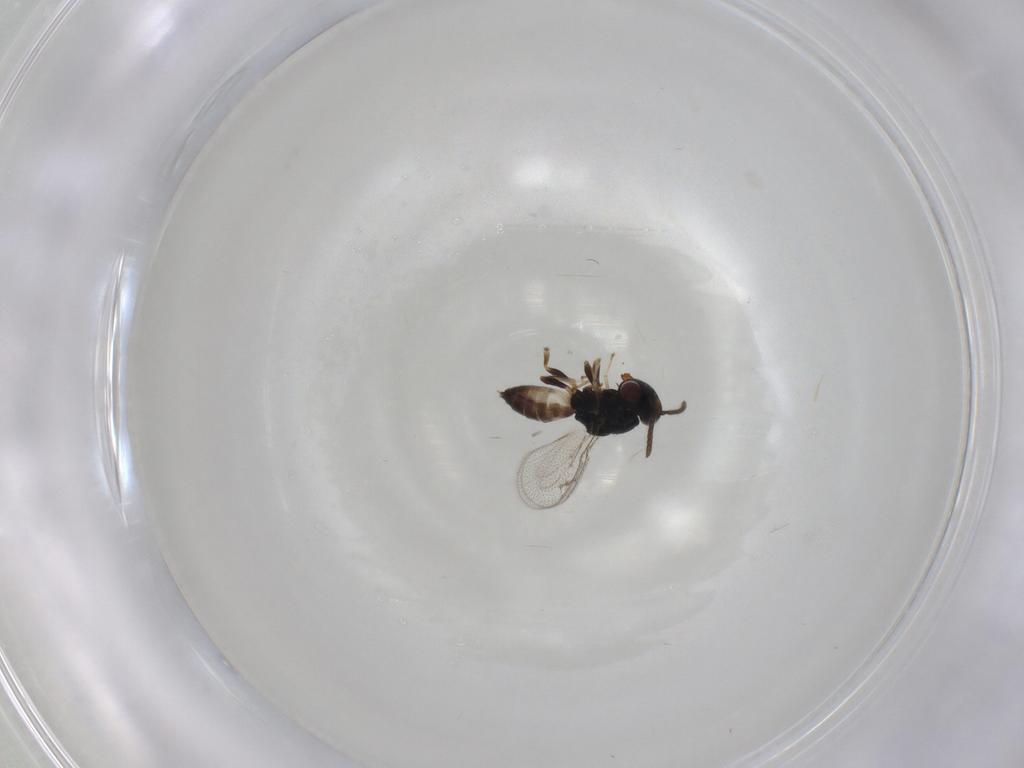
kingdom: Animalia
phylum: Arthropoda
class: Insecta
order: Hymenoptera
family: Pteromalidae
